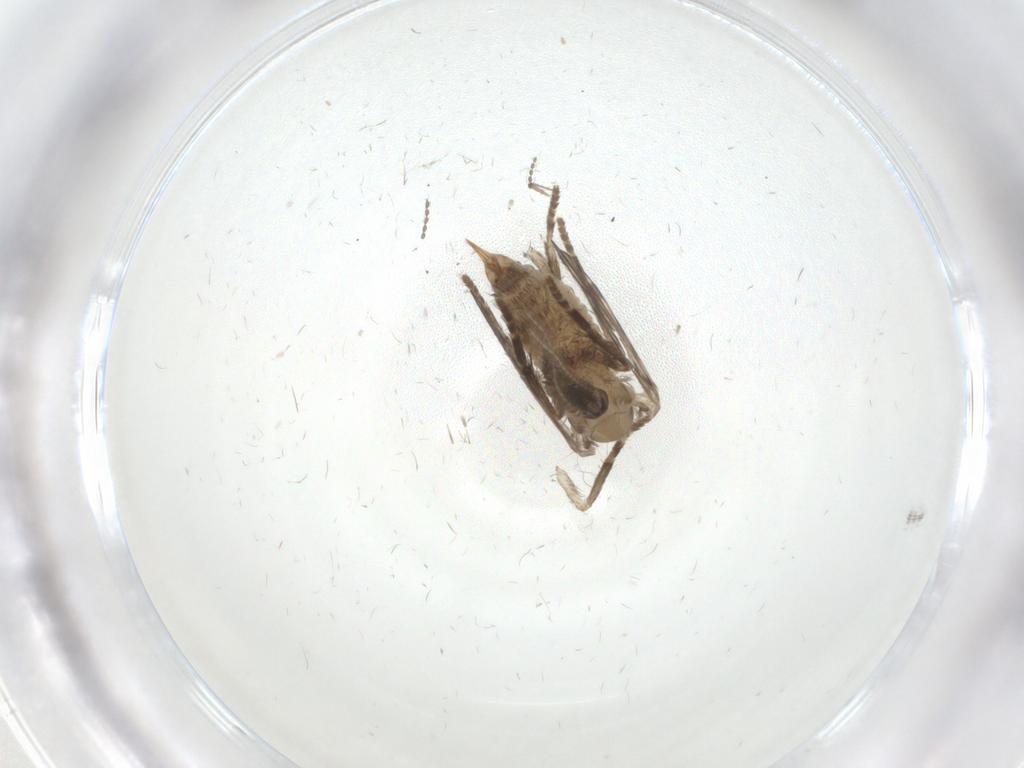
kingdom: Animalia
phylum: Arthropoda
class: Insecta
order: Diptera
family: Psychodidae
